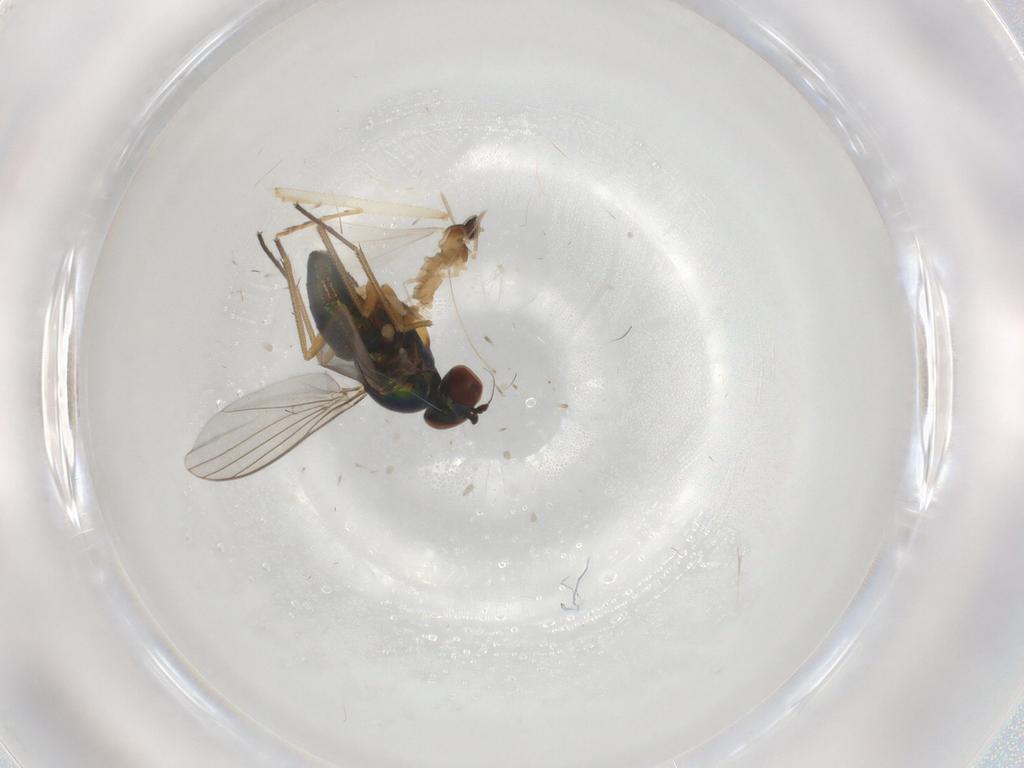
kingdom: Animalia
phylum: Arthropoda
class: Insecta
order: Diptera
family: Dolichopodidae
